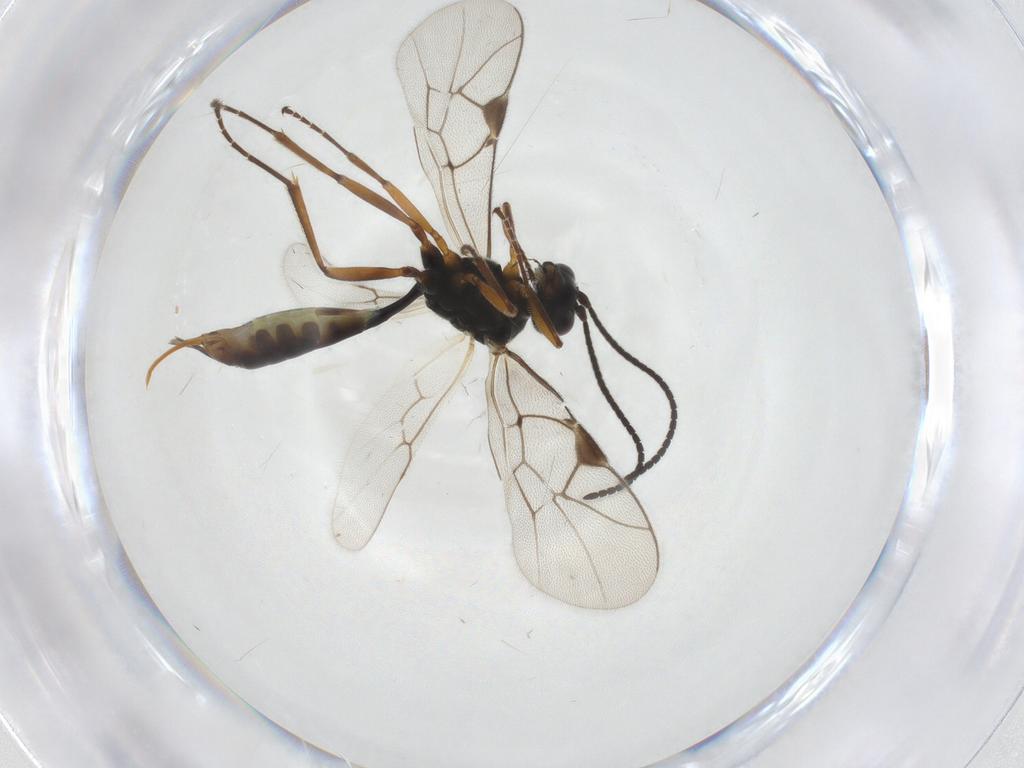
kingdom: Animalia
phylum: Arthropoda
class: Insecta
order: Hymenoptera
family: Ichneumonidae
